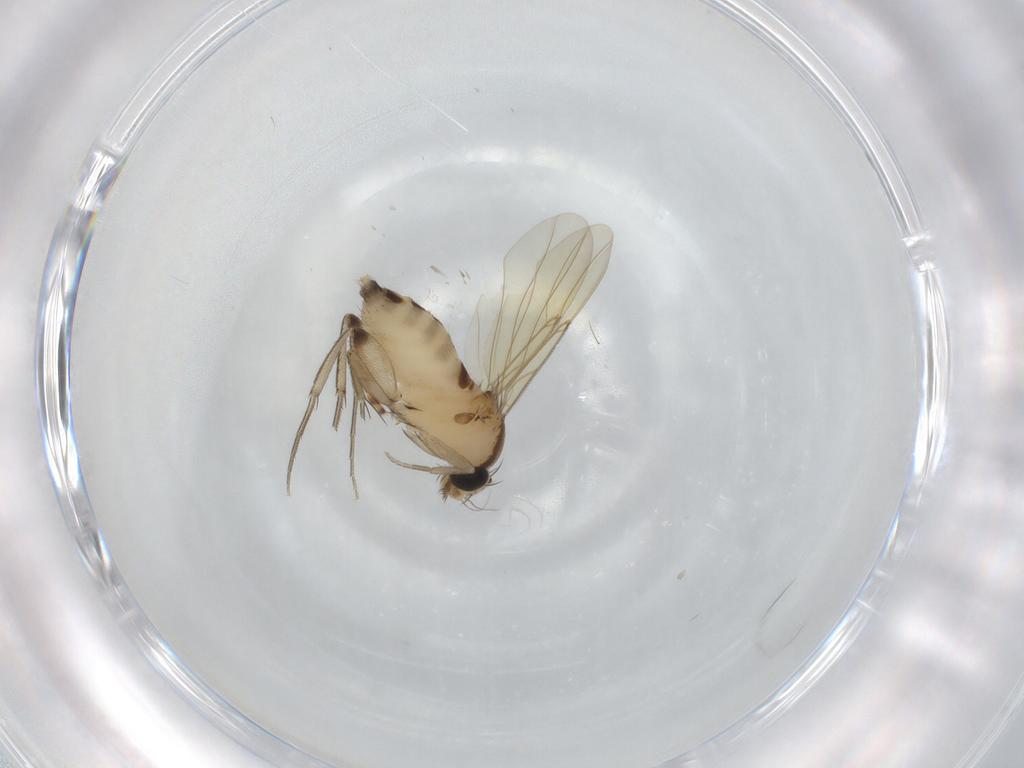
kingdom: Animalia
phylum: Arthropoda
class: Insecta
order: Diptera
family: Phoridae
